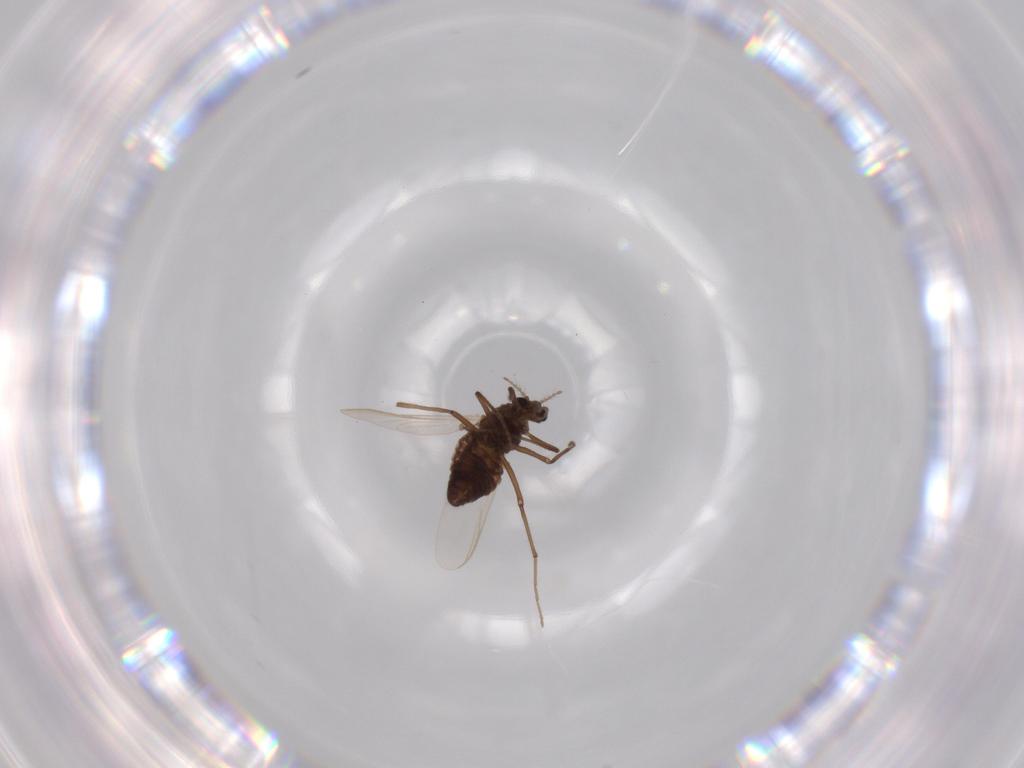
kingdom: Animalia
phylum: Arthropoda
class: Insecta
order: Diptera
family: Chironomidae
